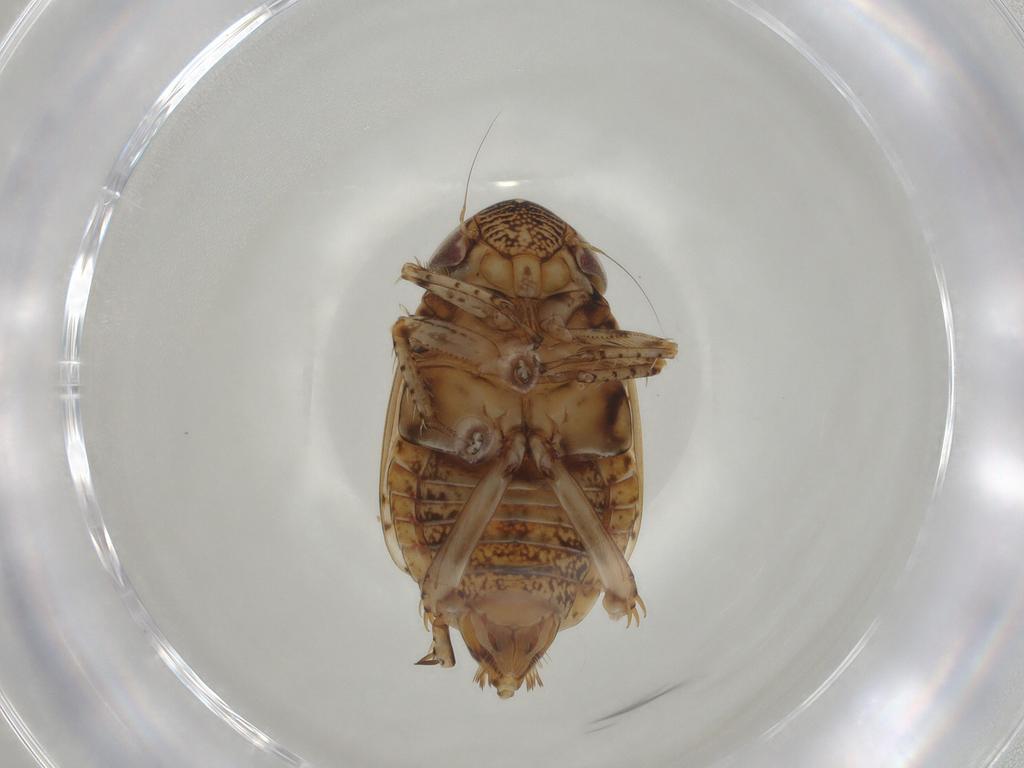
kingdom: Animalia
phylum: Arthropoda
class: Insecta
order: Hemiptera
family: Cicadellidae
